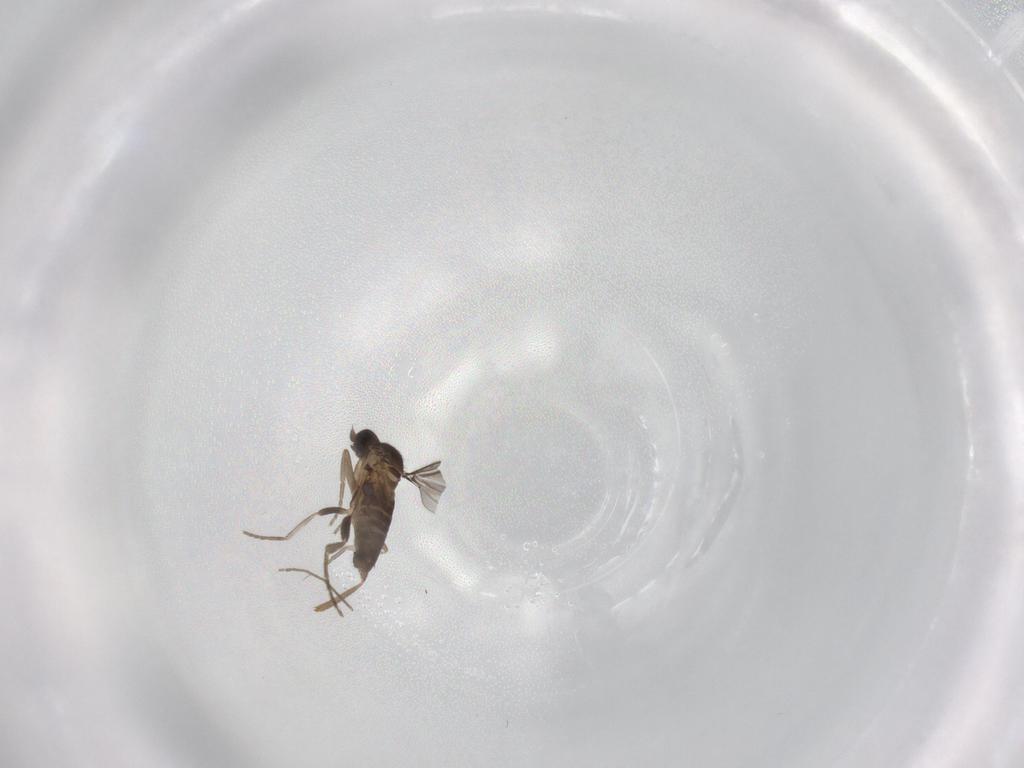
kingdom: Animalia
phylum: Arthropoda
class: Insecta
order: Diptera
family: Phoridae
